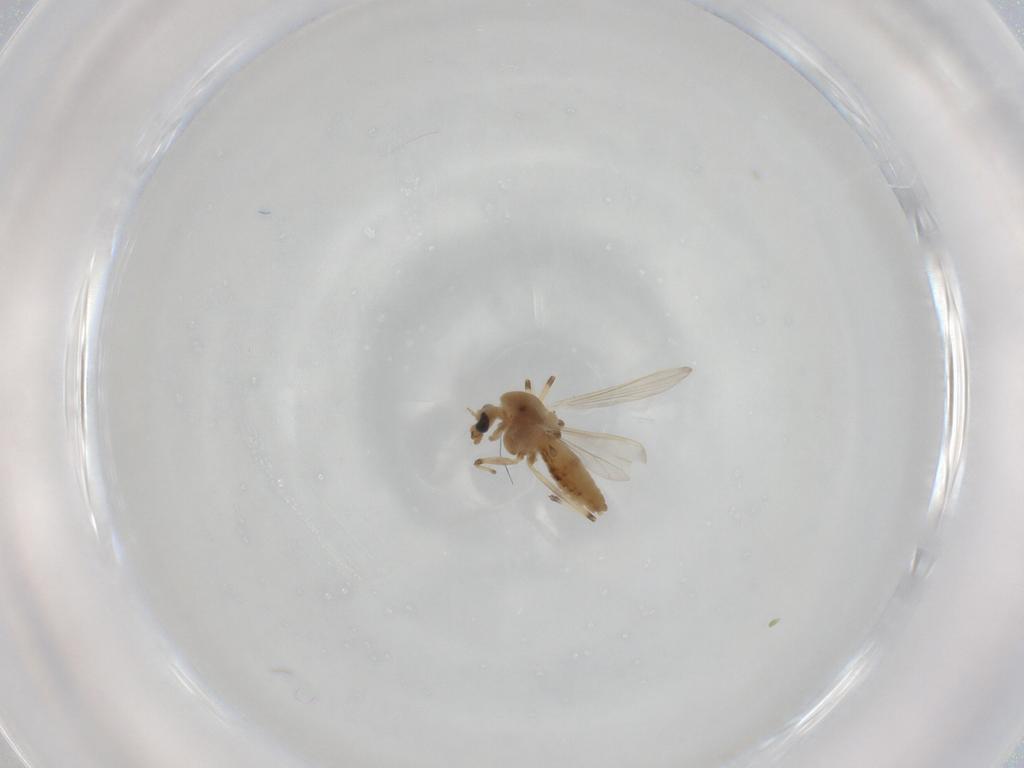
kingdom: Animalia
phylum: Arthropoda
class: Insecta
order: Diptera
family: Chironomidae
